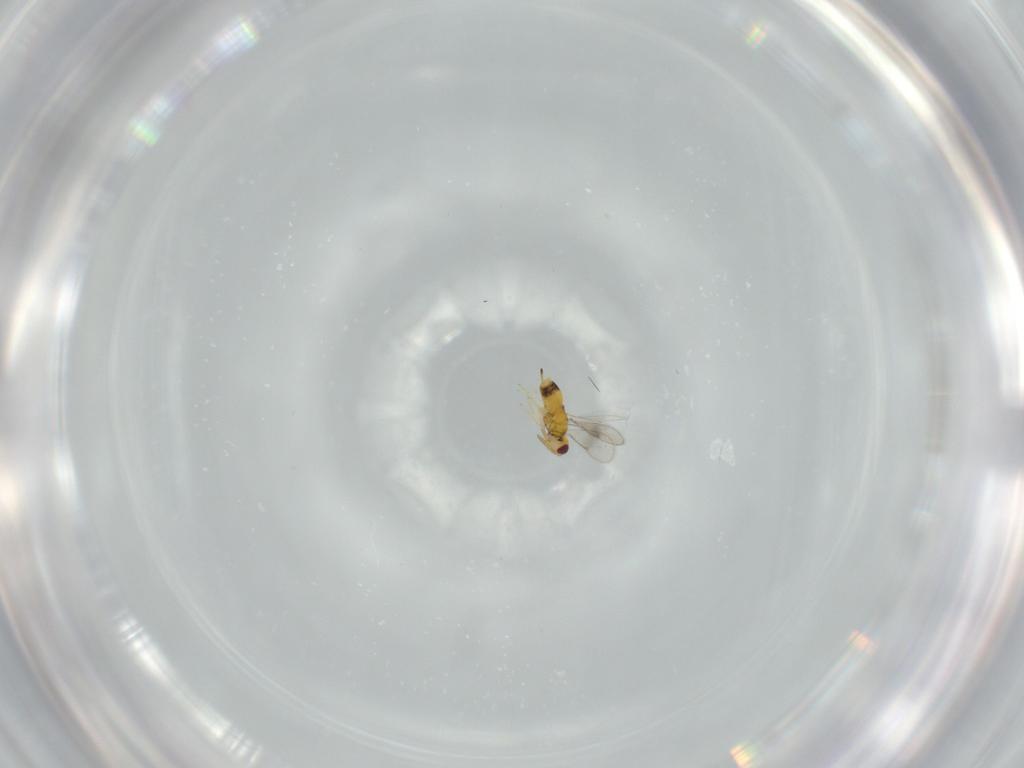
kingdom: Animalia
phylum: Arthropoda
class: Insecta
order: Hymenoptera
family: Aphelinidae
